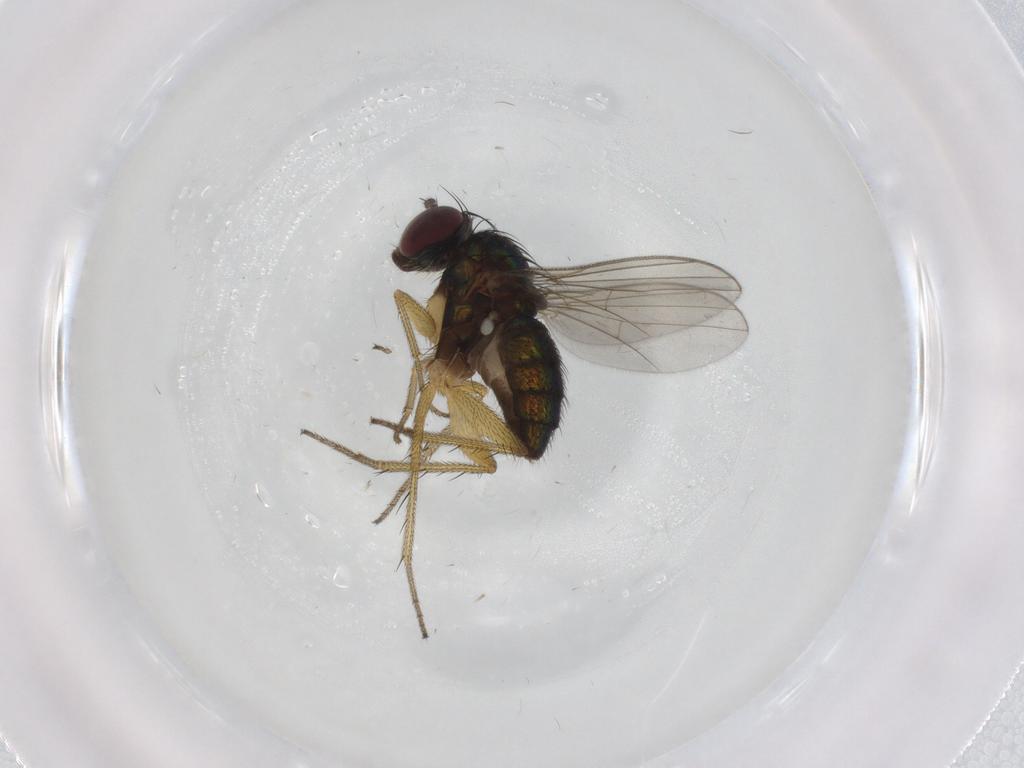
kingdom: Animalia
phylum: Arthropoda
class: Insecta
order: Diptera
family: Dolichopodidae
